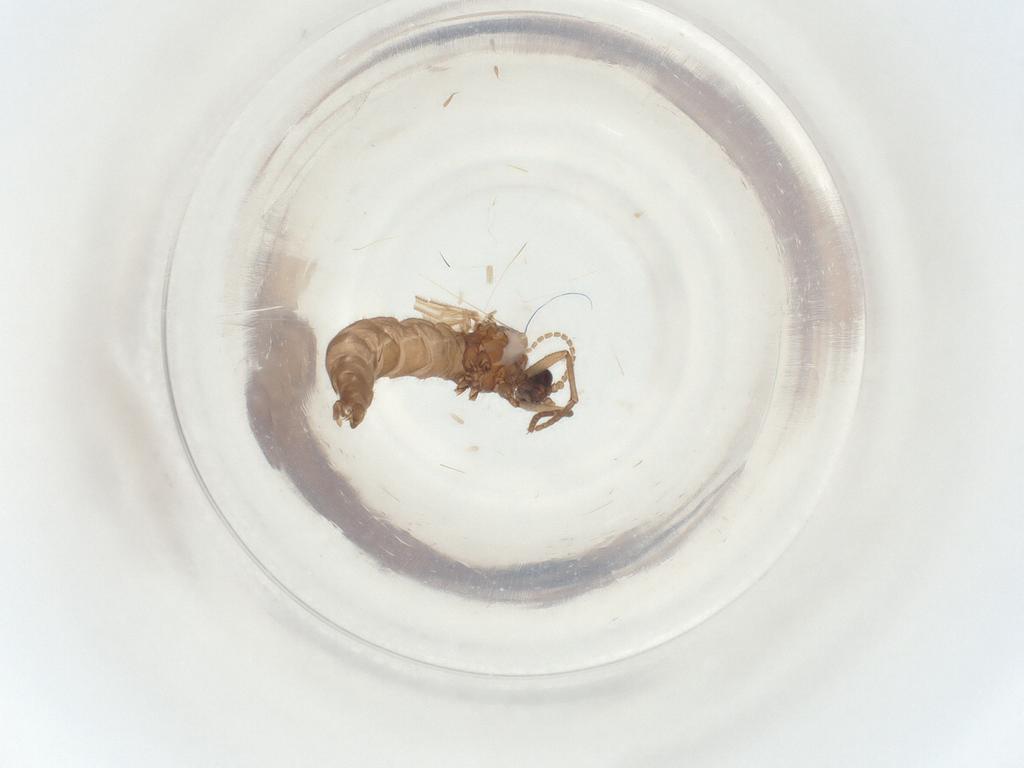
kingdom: Animalia
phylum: Arthropoda
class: Insecta
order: Diptera
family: Sciaridae
